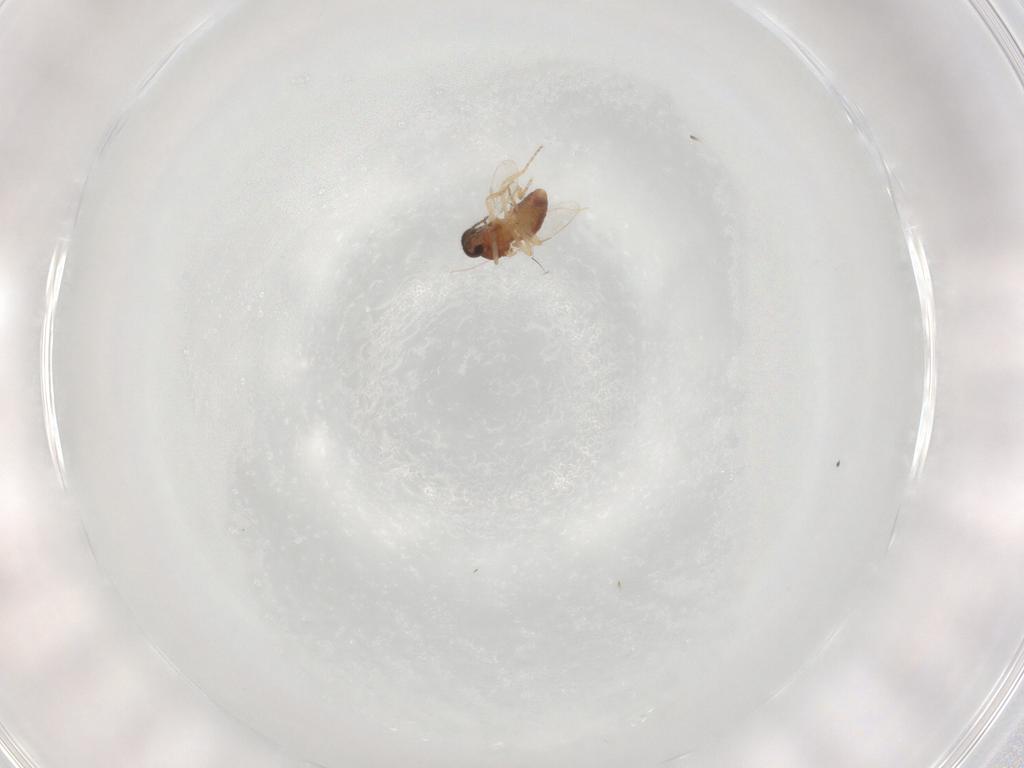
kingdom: Animalia
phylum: Arthropoda
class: Insecta
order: Diptera
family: Ceratopogonidae
